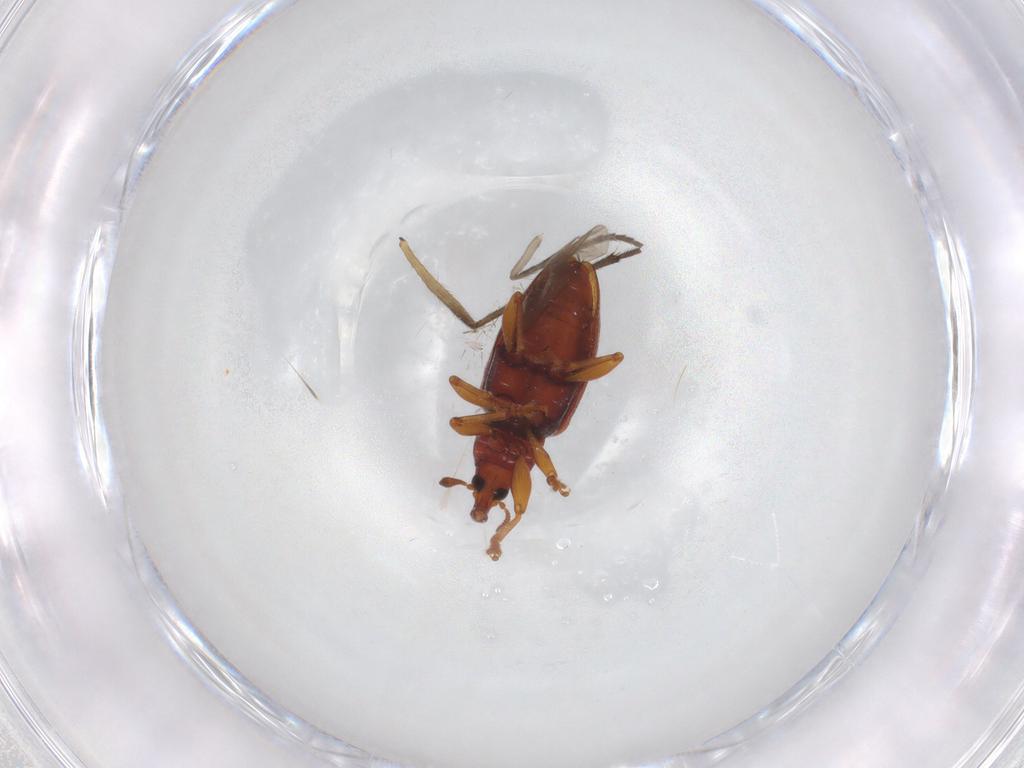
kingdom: Animalia
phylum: Arthropoda
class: Insecta
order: Coleoptera
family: Curculionidae
